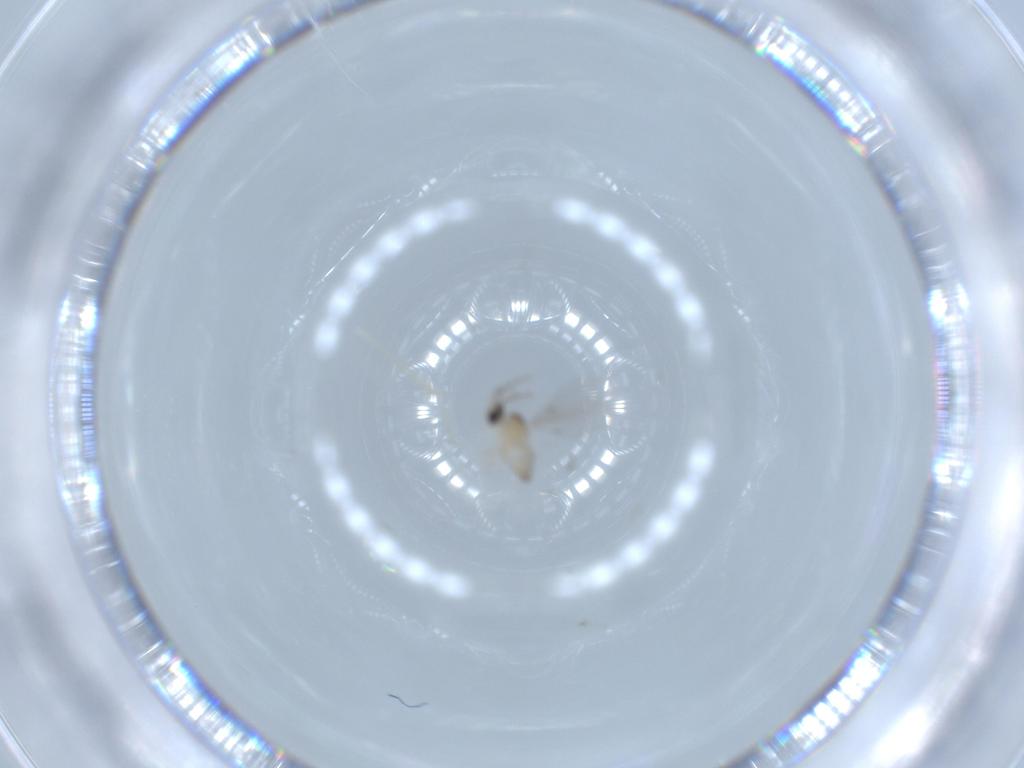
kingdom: Animalia
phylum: Arthropoda
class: Insecta
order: Diptera
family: Cecidomyiidae
